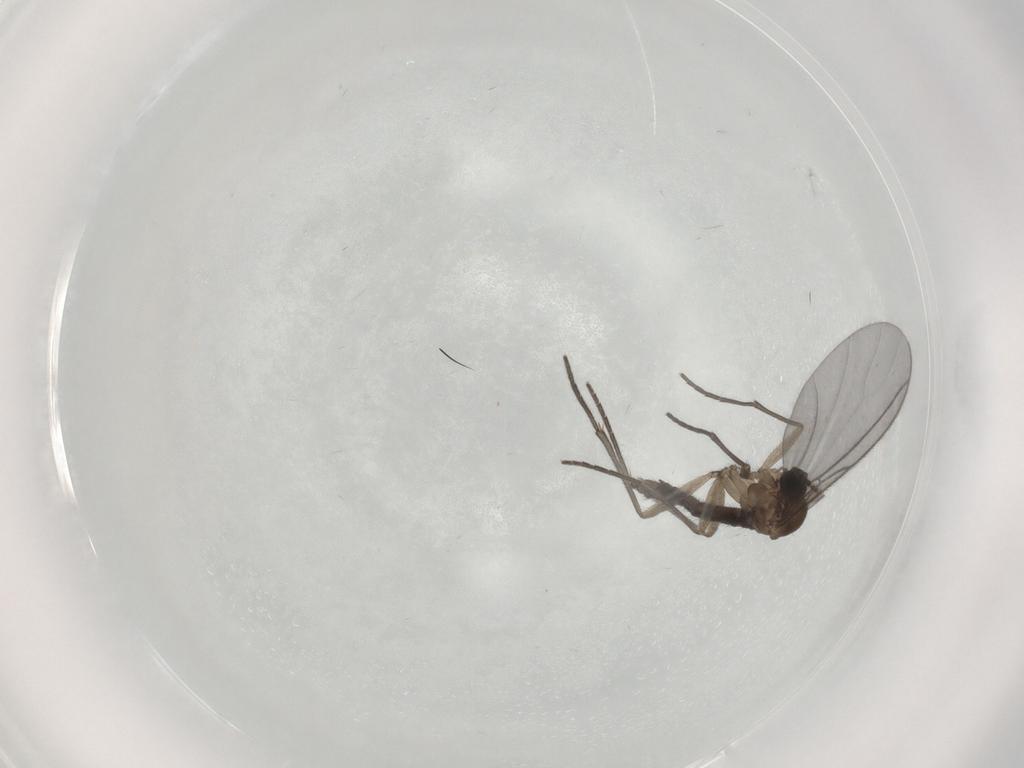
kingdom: Animalia
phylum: Arthropoda
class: Insecta
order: Diptera
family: Sciaridae
